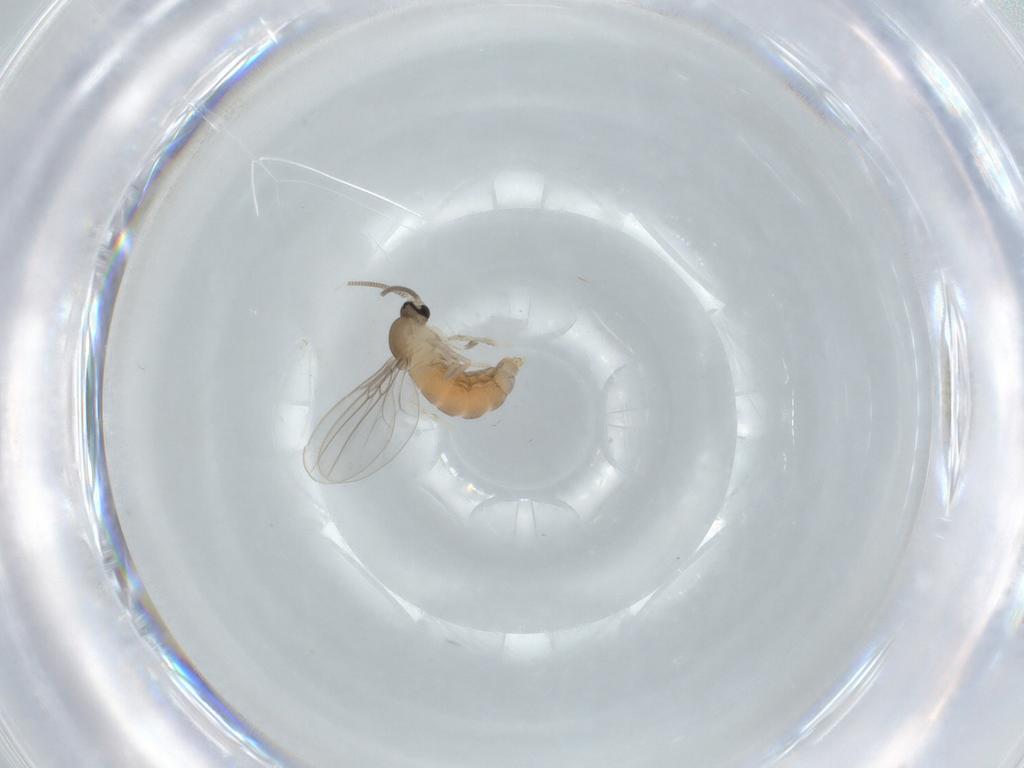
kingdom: Animalia
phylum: Arthropoda
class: Insecta
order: Diptera
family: Cecidomyiidae
